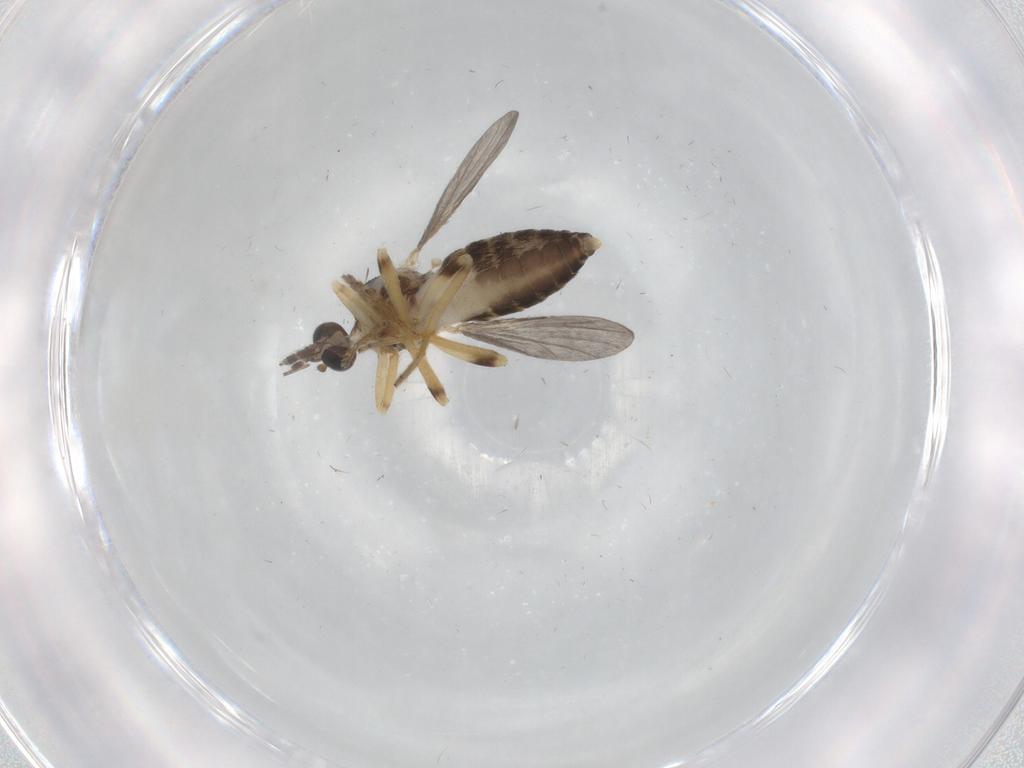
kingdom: Animalia
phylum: Arthropoda
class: Insecta
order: Diptera
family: Ceratopogonidae
